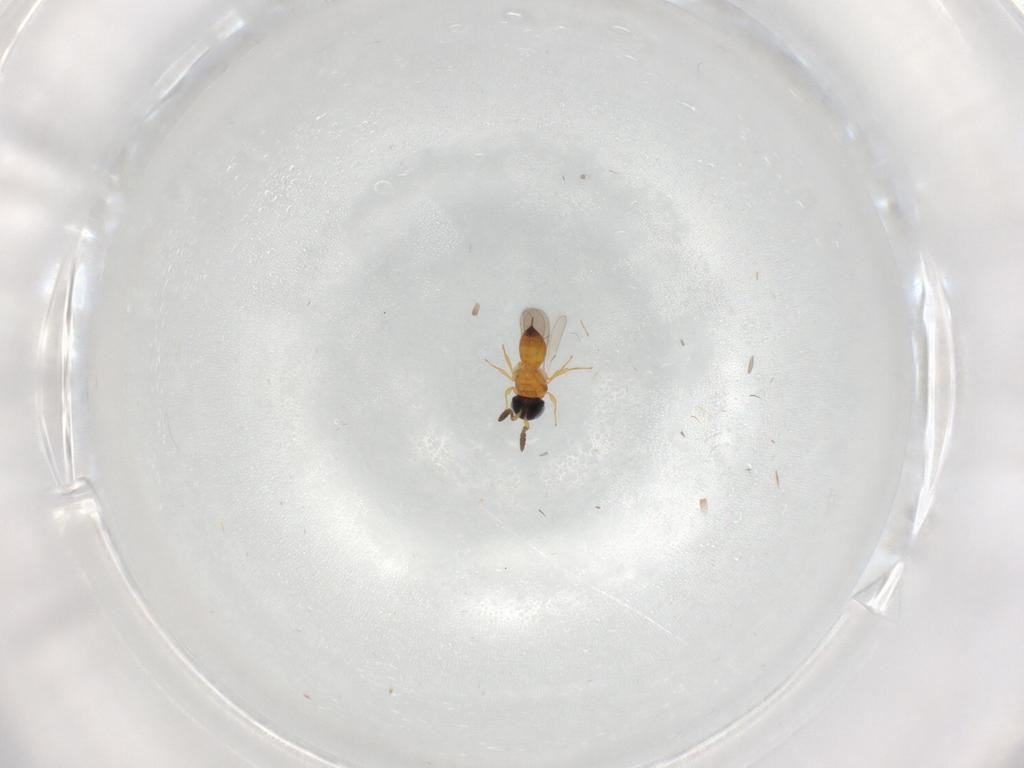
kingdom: Animalia
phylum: Arthropoda
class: Insecta
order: Hymenoptera
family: Scelionidae
